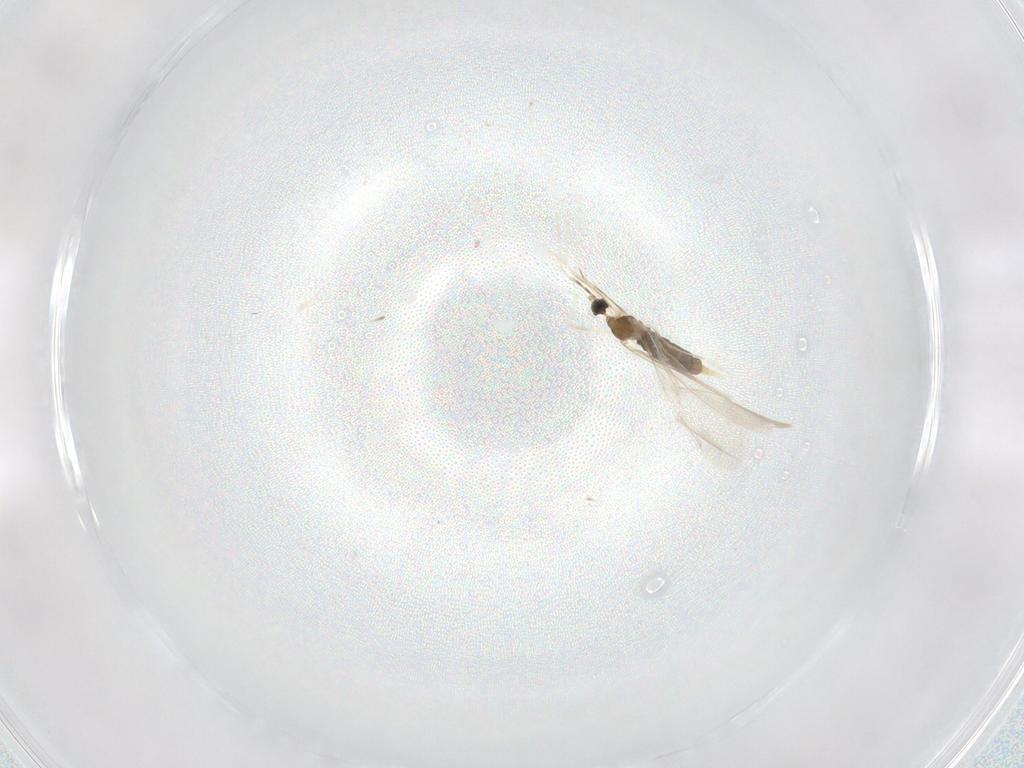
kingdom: Animalia
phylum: Arthropoda
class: Insecta
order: Diptera
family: Cecidomyiidae
